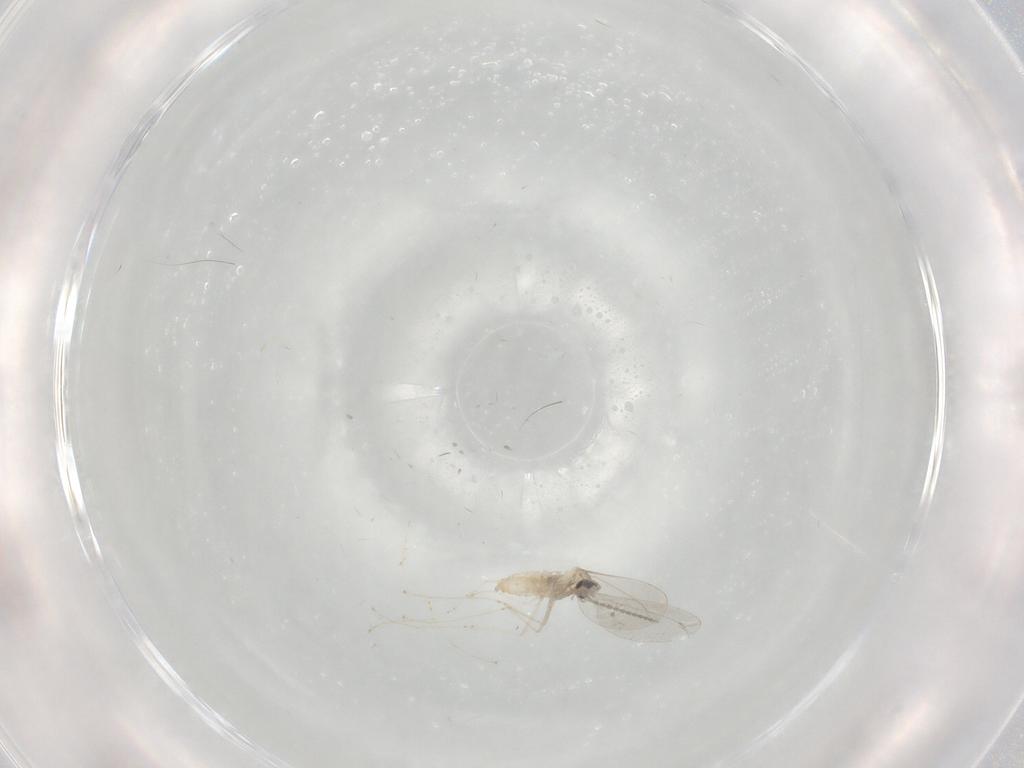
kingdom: Animalia
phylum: Arthropoda
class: Insecta
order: Diptera
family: Cecidomyiidae
